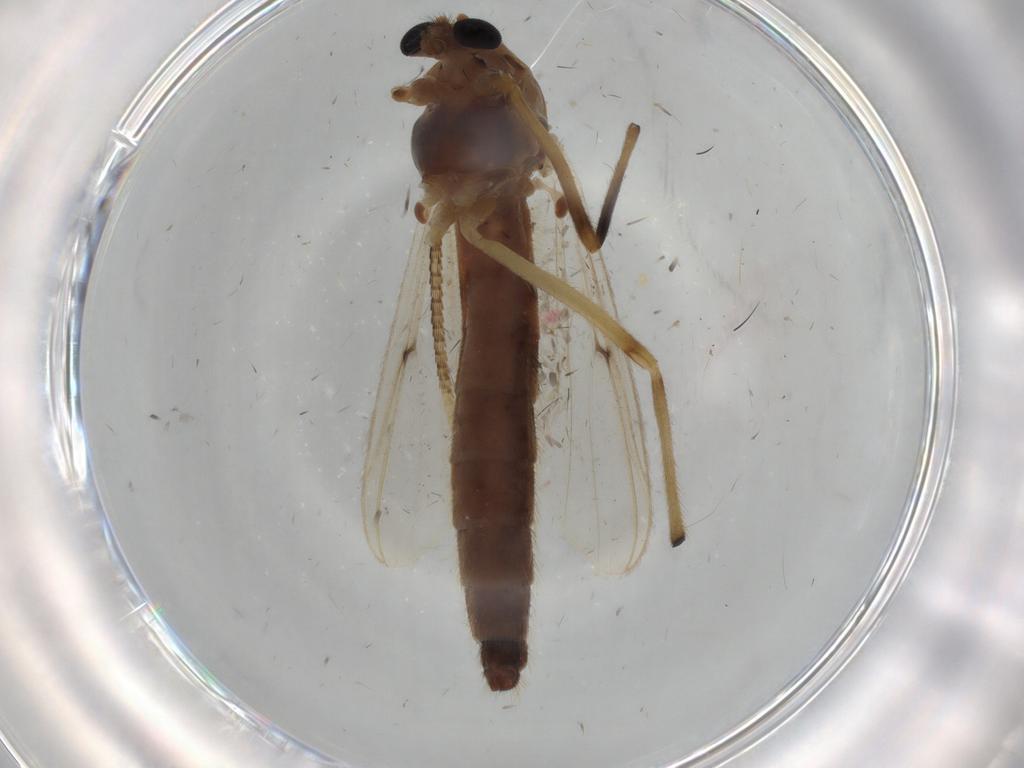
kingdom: Animalia
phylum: Arthropoda
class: Insecta
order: Diptera
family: Chironomidae
